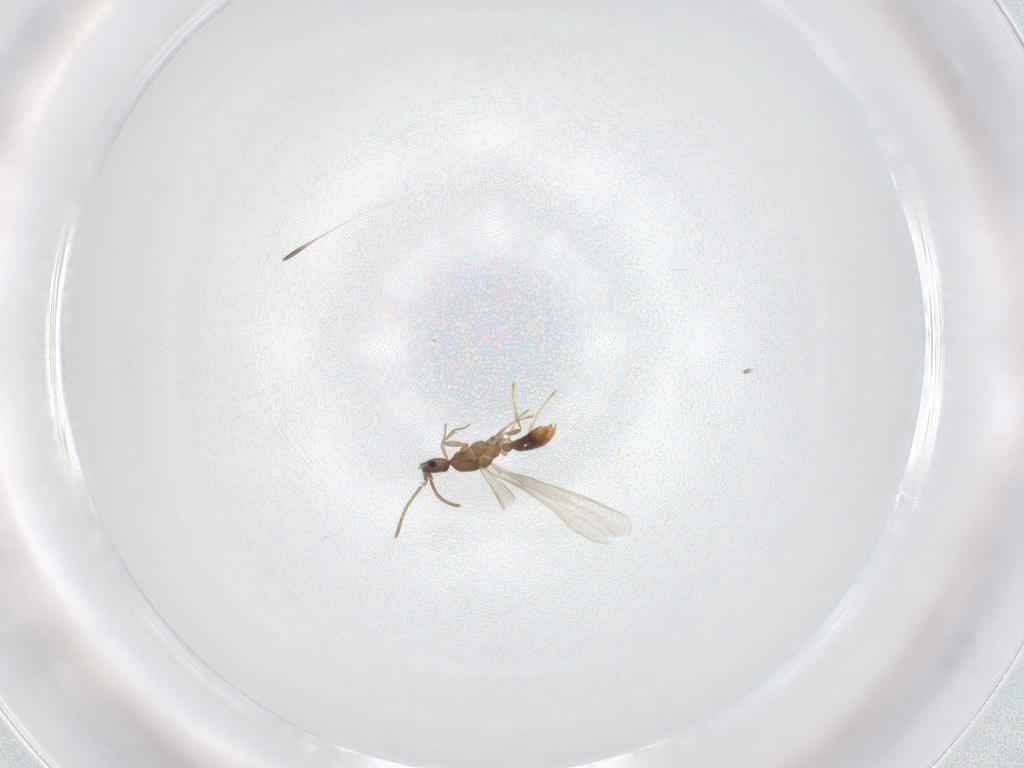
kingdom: Animalia
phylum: Arthropoda
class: Insecta
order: Hymenoptera
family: Formicidae
